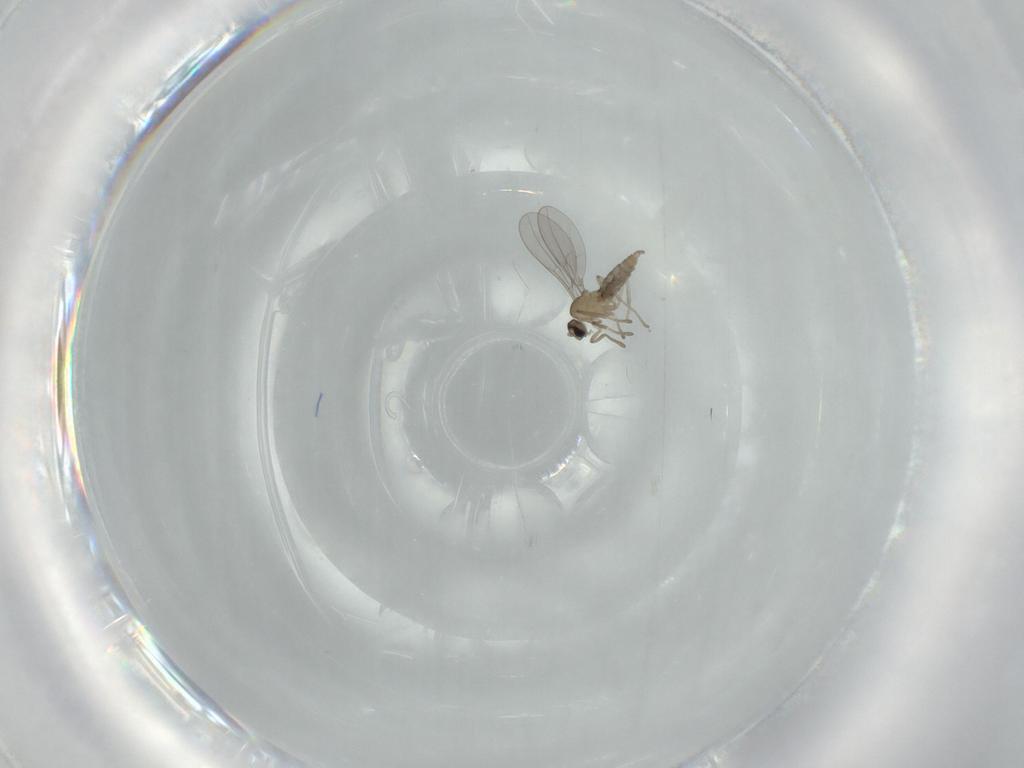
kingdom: Animalia
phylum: Arthropoda
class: Insecta
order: Diptera
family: Cecidomyiidae
